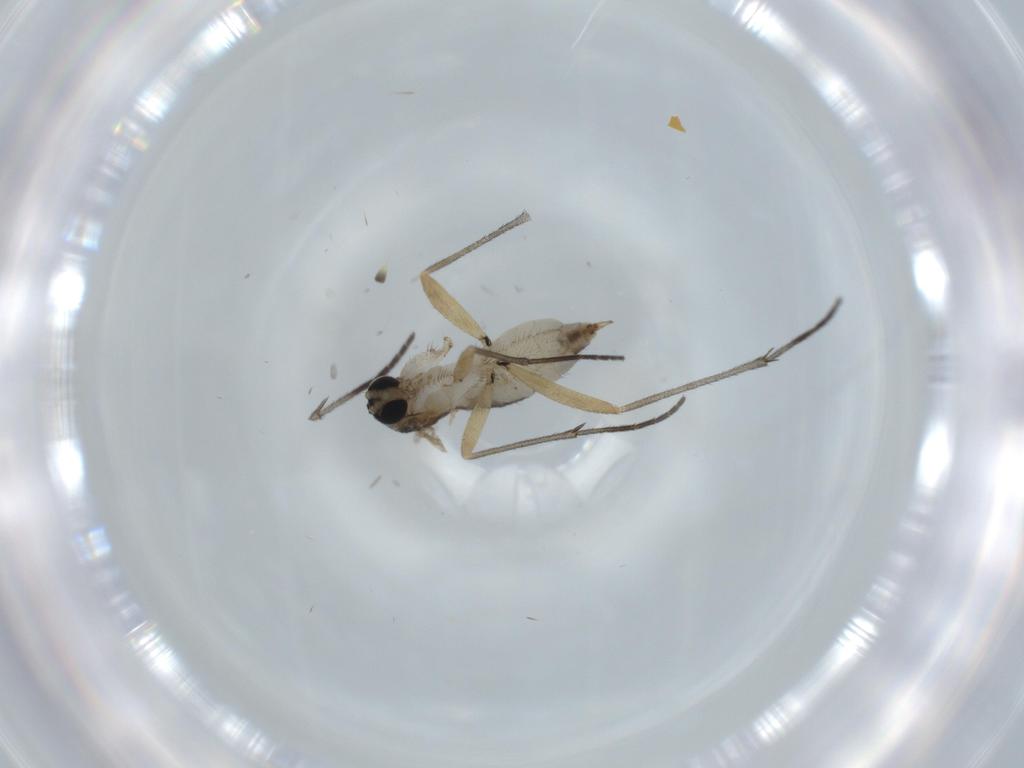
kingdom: Animalia
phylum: Arthropoda
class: Insecta
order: Diptera
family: Sciaridae
